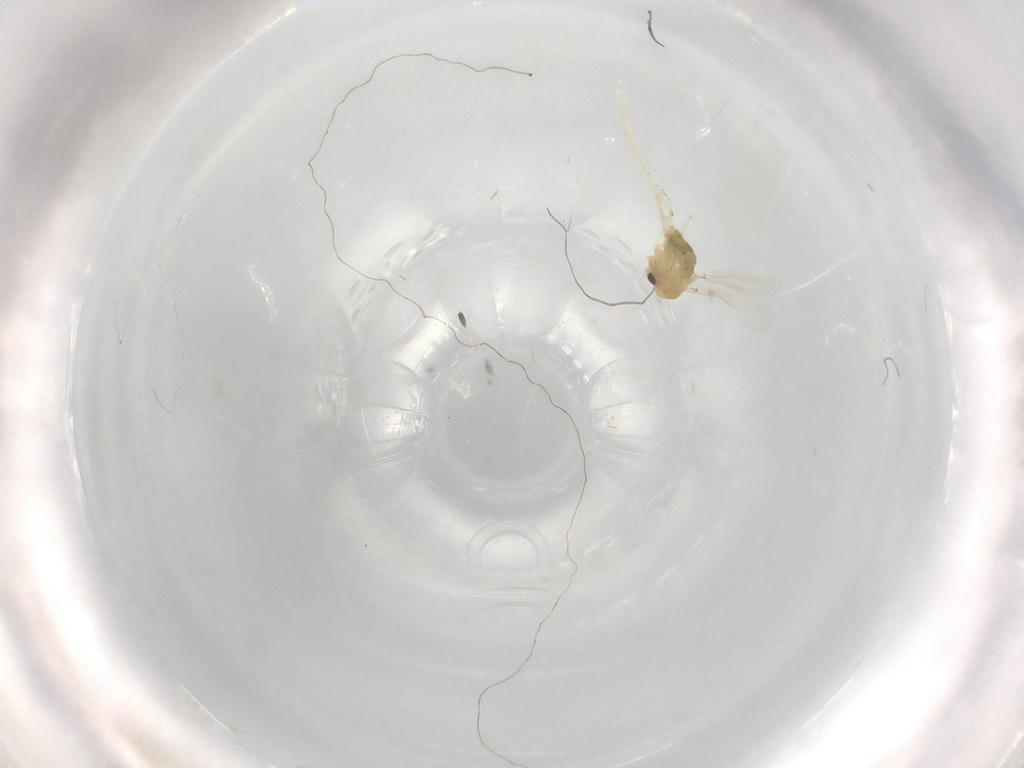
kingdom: Animalia
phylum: Arthropoda
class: Insecta
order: Diptera
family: Chironomidae
